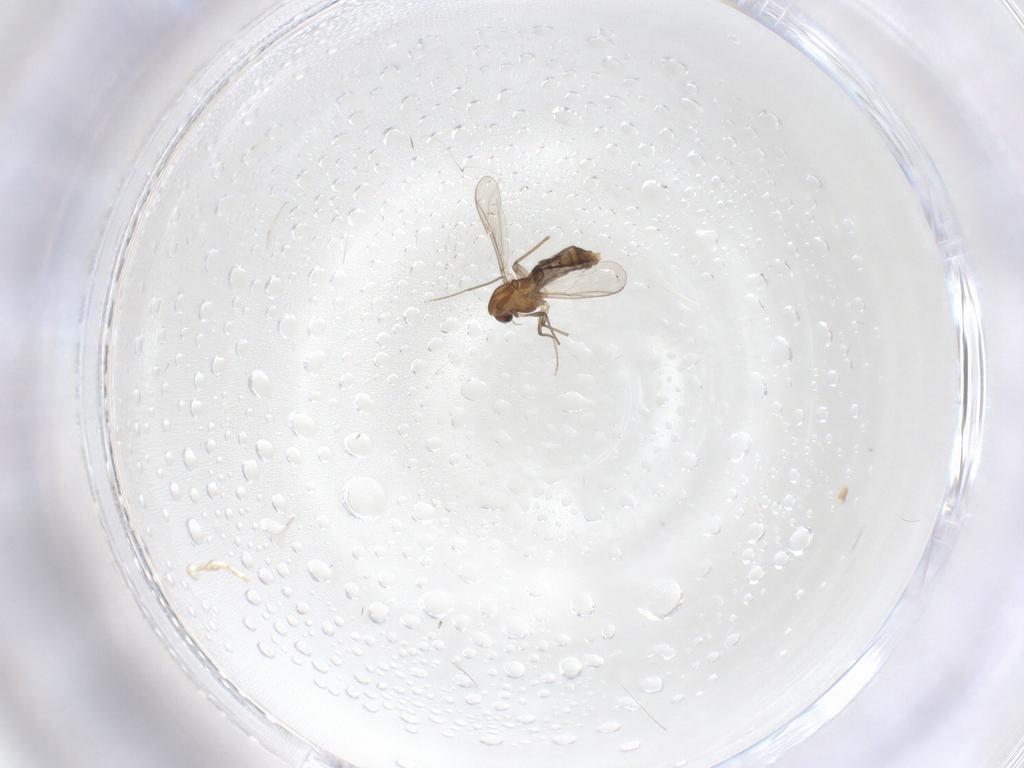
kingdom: Animalia
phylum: Arthropoda
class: Insecta
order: Diptera
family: Chironomidae
